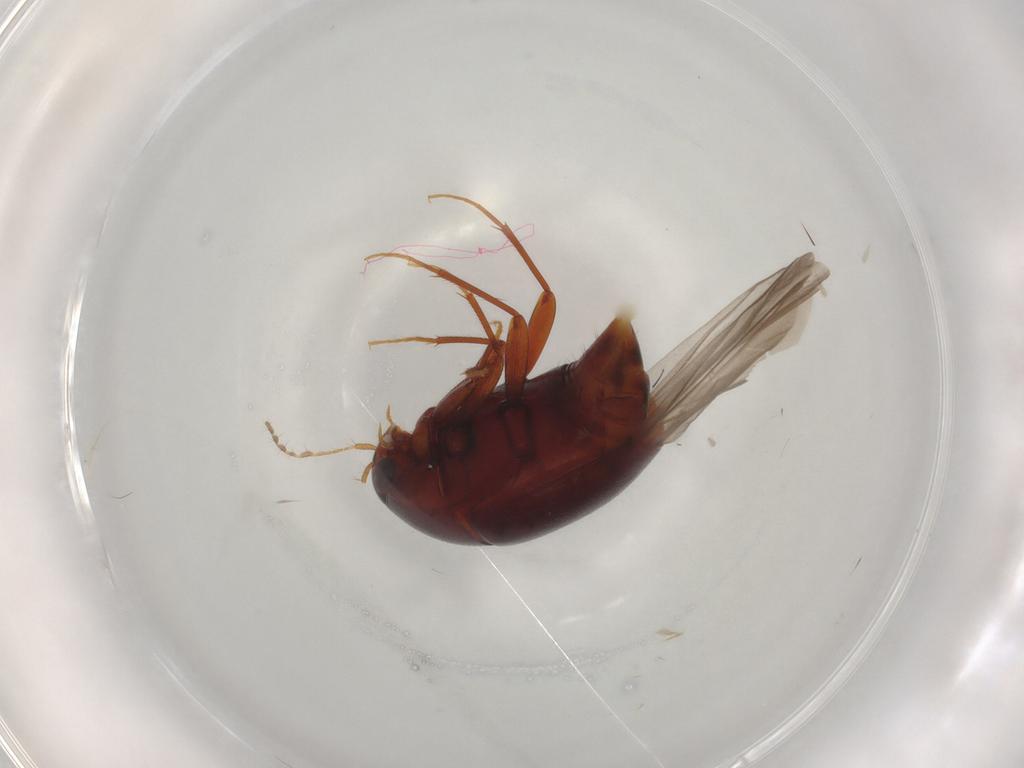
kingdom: Animalia
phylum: Arthropoda
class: Insecta
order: Coleoptera
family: Staphylinidae
